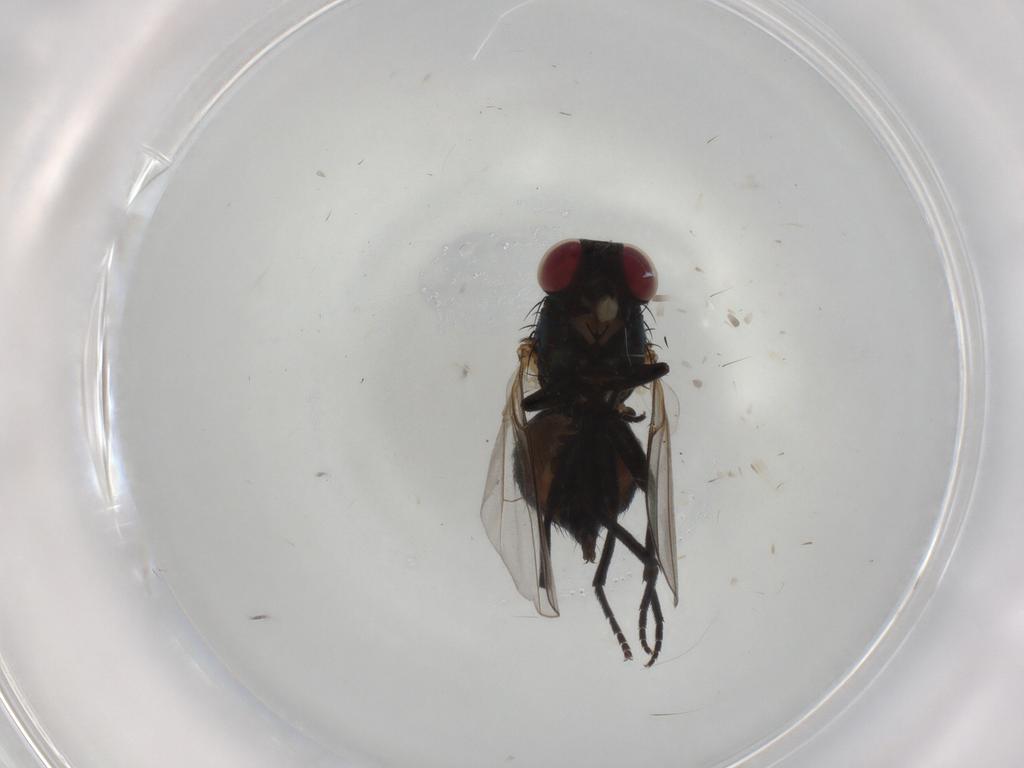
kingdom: Animalia
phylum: Arthropoda
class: Insecta
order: Diptera
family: Agromyzidae
